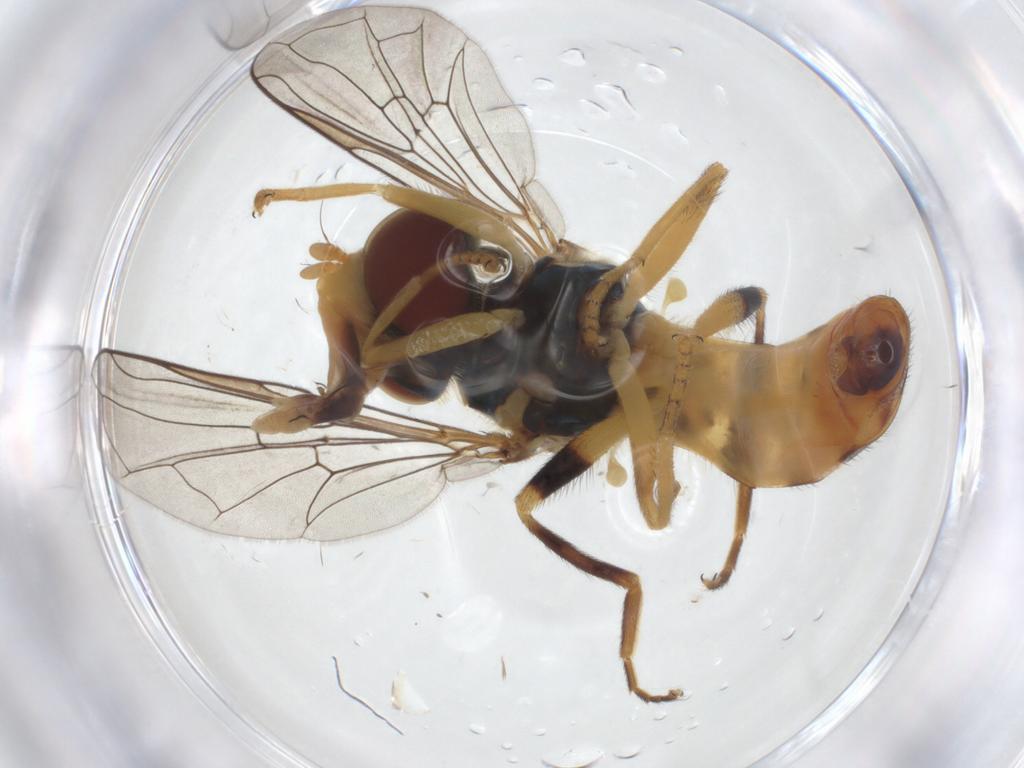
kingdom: Animalia
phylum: Arthropoda
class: Insecta
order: Diptera
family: Syrphidae
